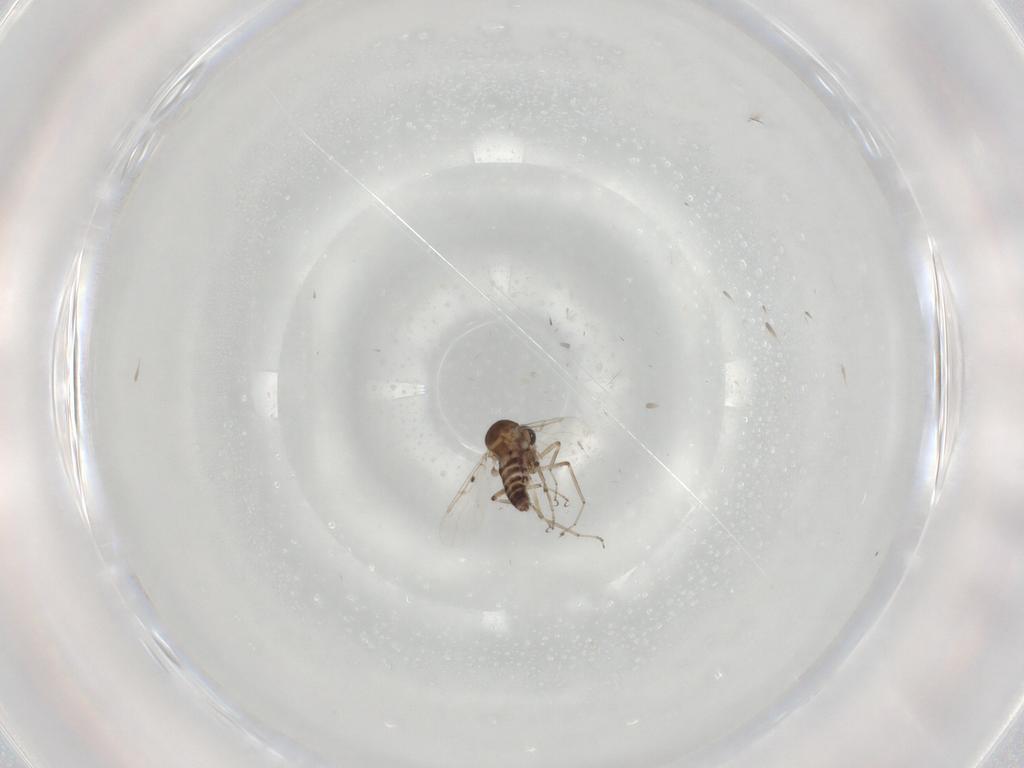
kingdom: Animalia
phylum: Arthropoda
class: Insecta
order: Diptera
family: Ceratopogonidae
